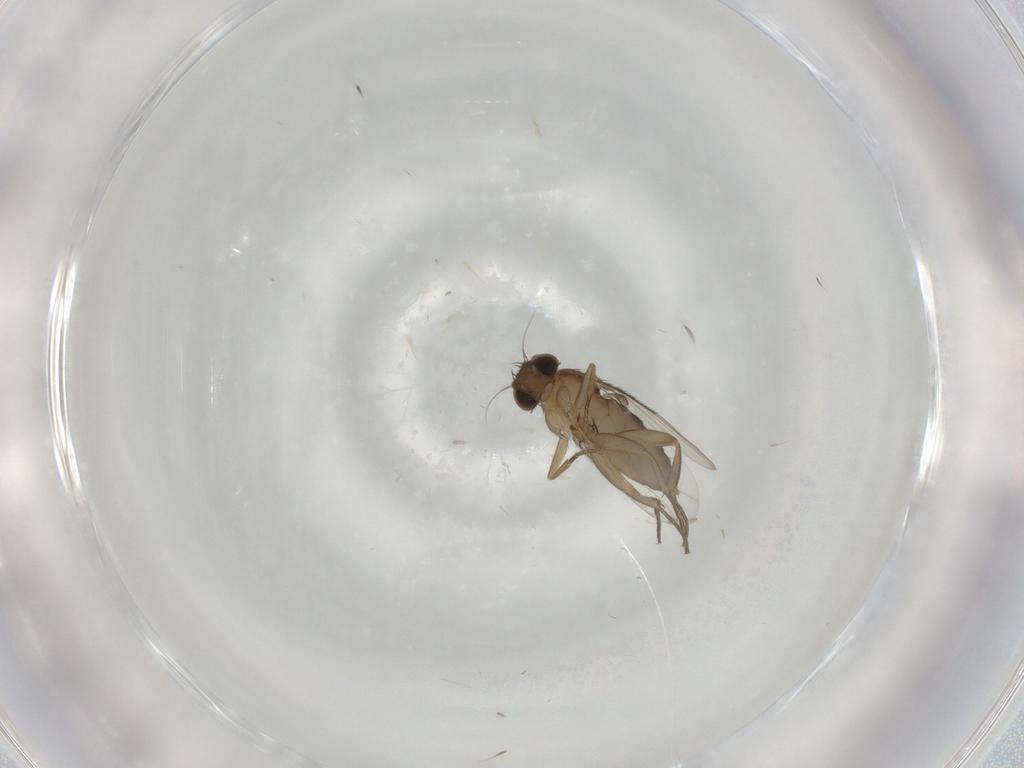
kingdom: Animalia
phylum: Arthropoda
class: Insecta
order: Diptera
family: Phoridae
